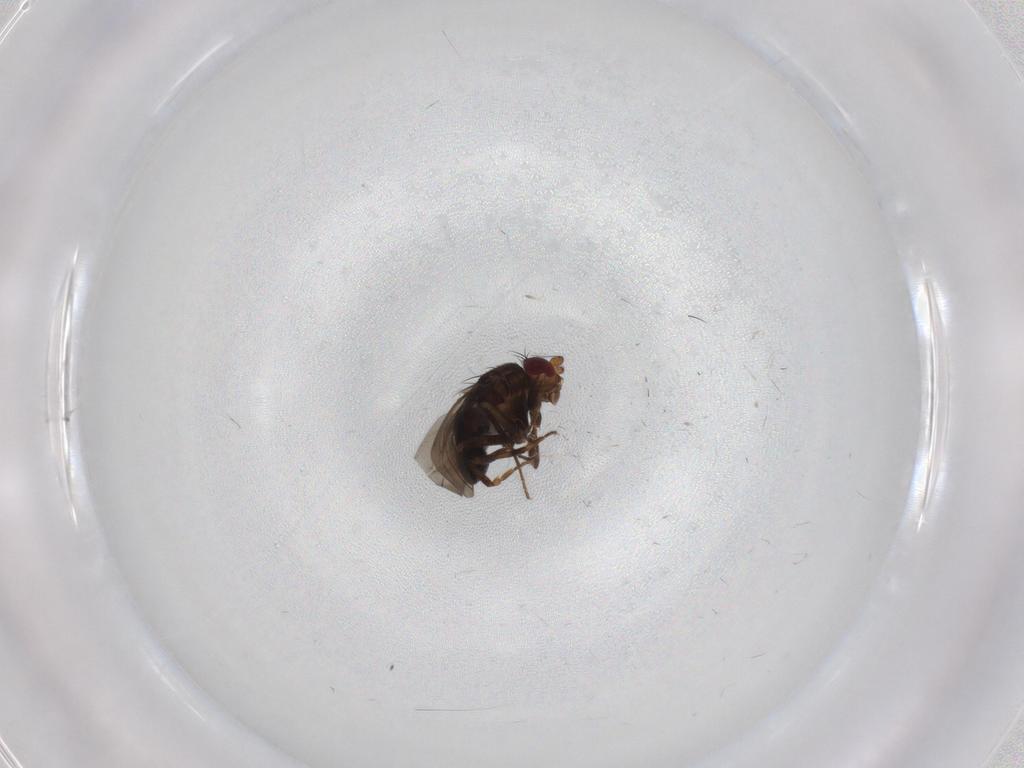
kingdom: Animalia
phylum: Arthropoda
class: Insecta
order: Diptera
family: Sphaeroceridae
